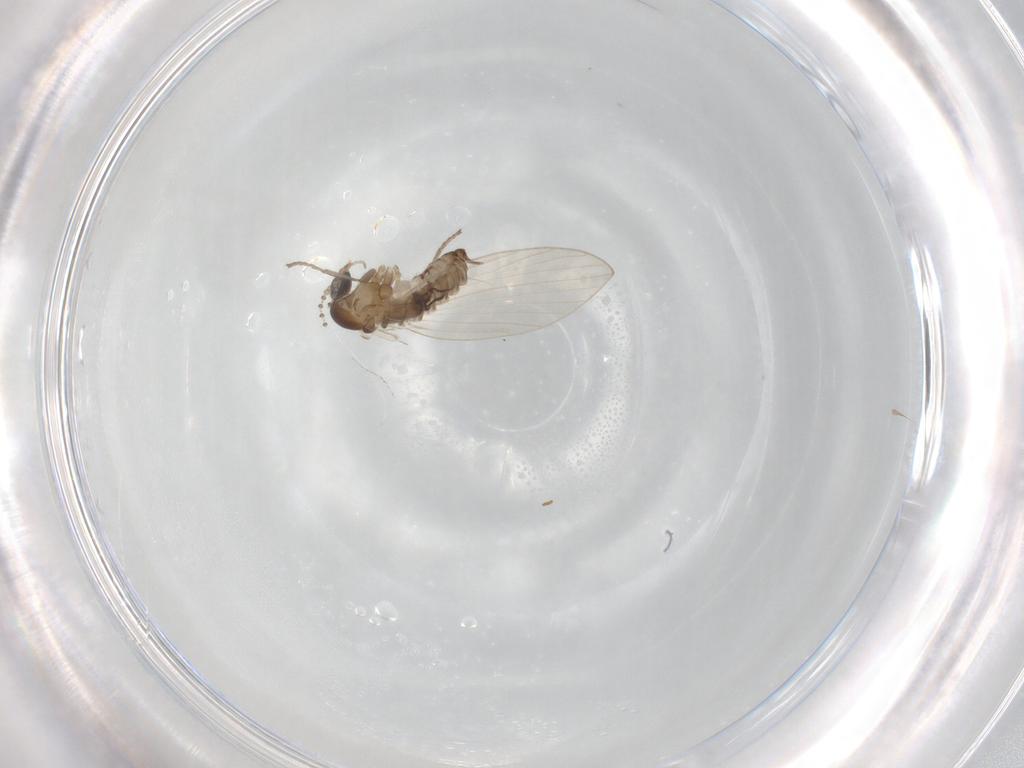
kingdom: Animalia
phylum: Arthropoda
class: Insecta
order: Diptera
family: Psychodidae
